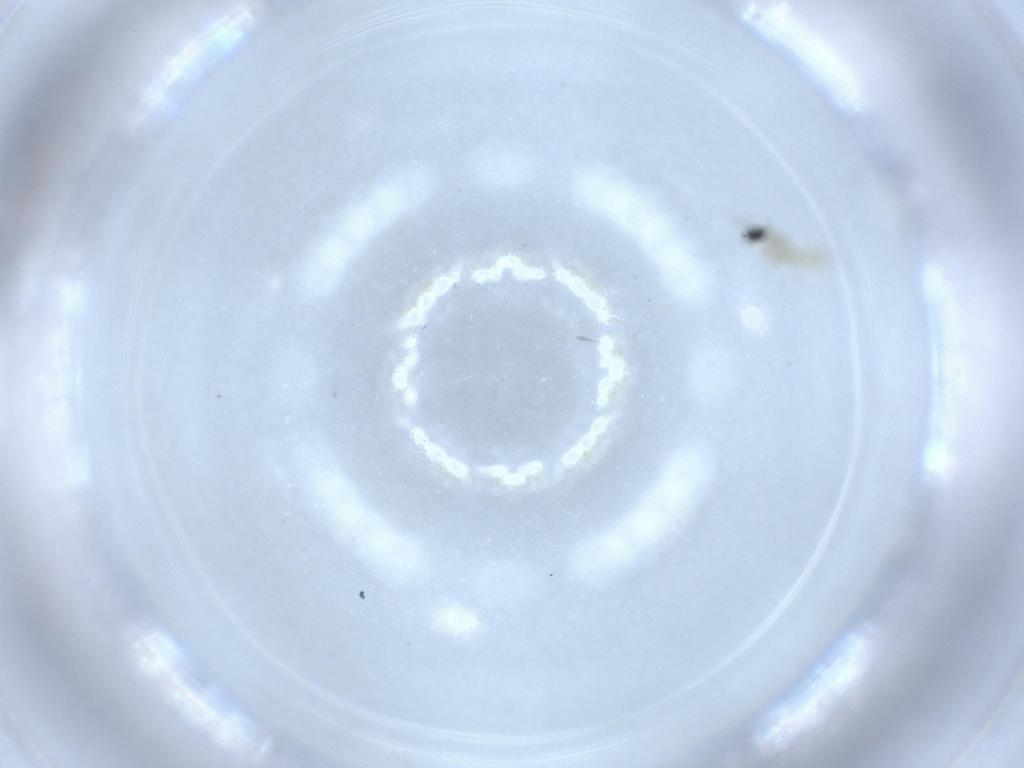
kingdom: Animalia
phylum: Arthropoda
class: Insecta
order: Diptera
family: Cecidomyiidae
